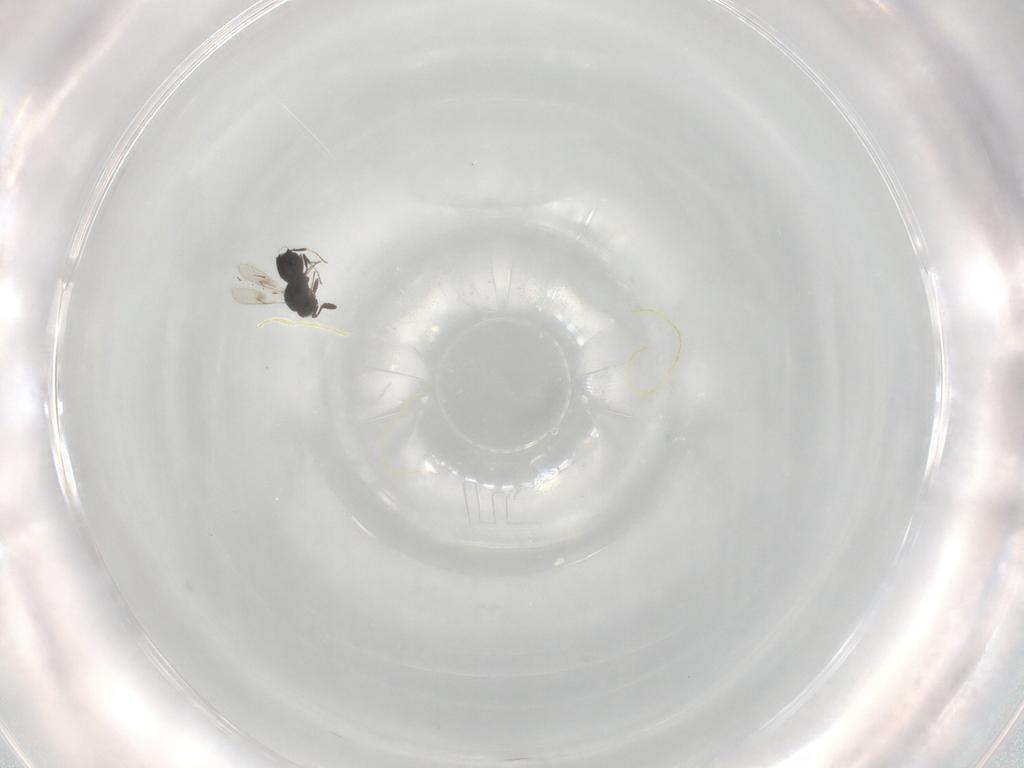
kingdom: Animalia
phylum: Arthropoda
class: Insecta
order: Hymenoptera
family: Scelionidae
